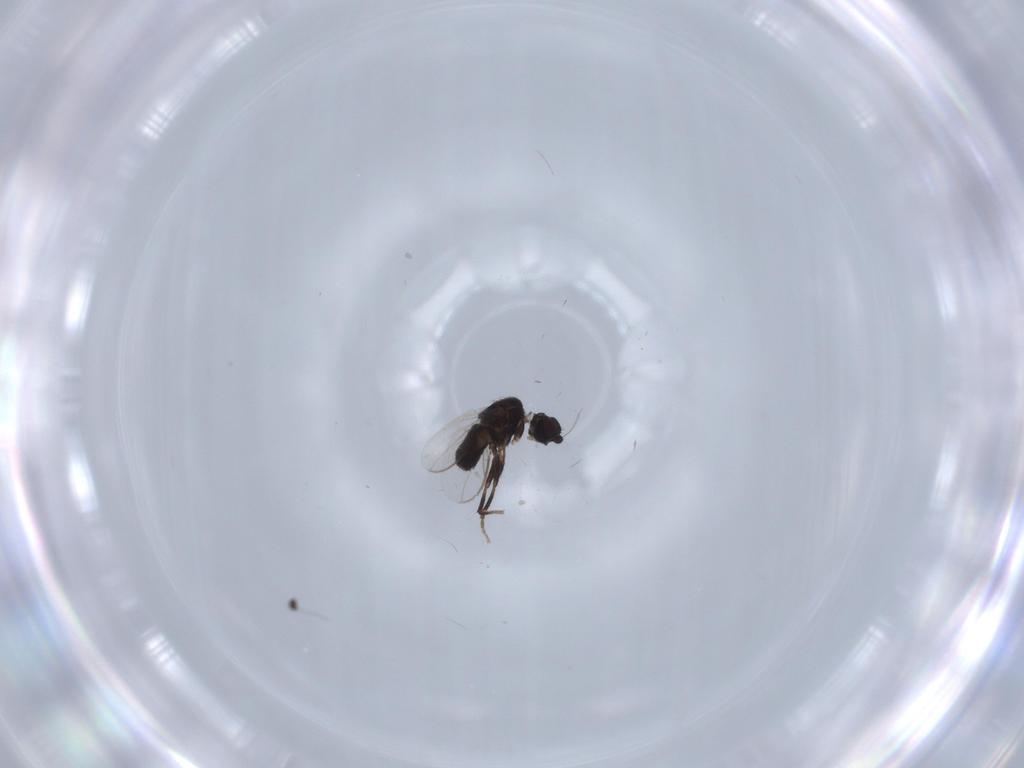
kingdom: Animalia
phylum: Arthropoda
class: Insecta
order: Diptera
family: Sphaeroceridae
